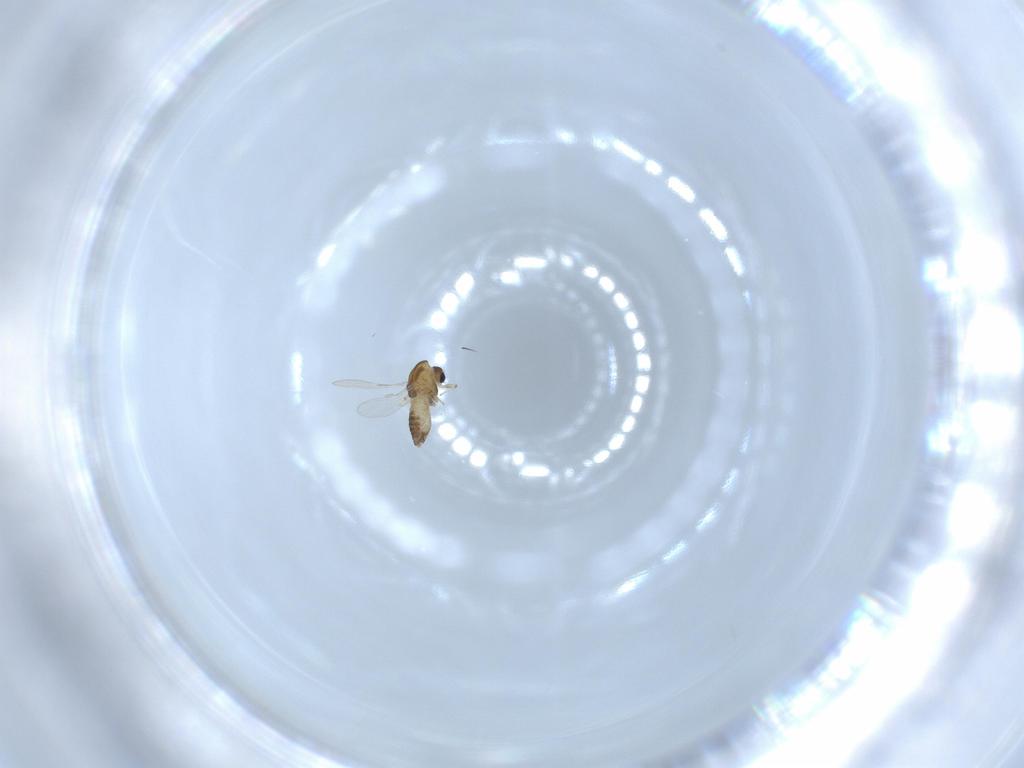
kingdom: Animalia
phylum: Arthropoda
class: Insecta
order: Diptera
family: Chironomidae
